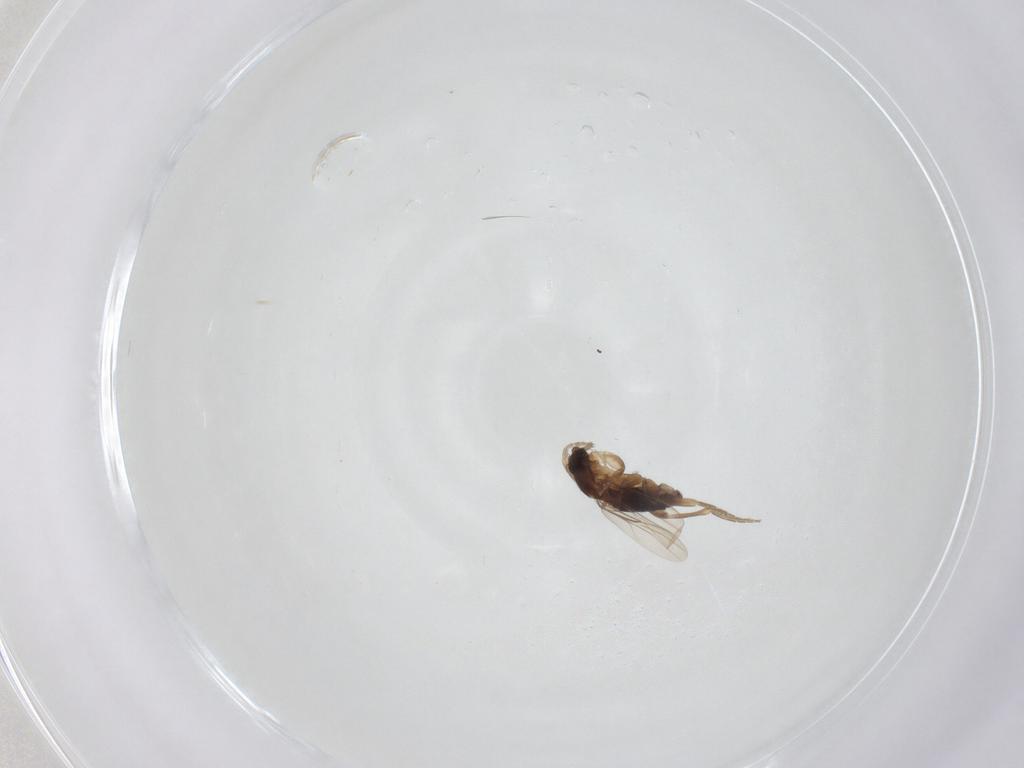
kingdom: Animalia
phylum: Arthropoda
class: Insecta
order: Diptera
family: Phoridae
